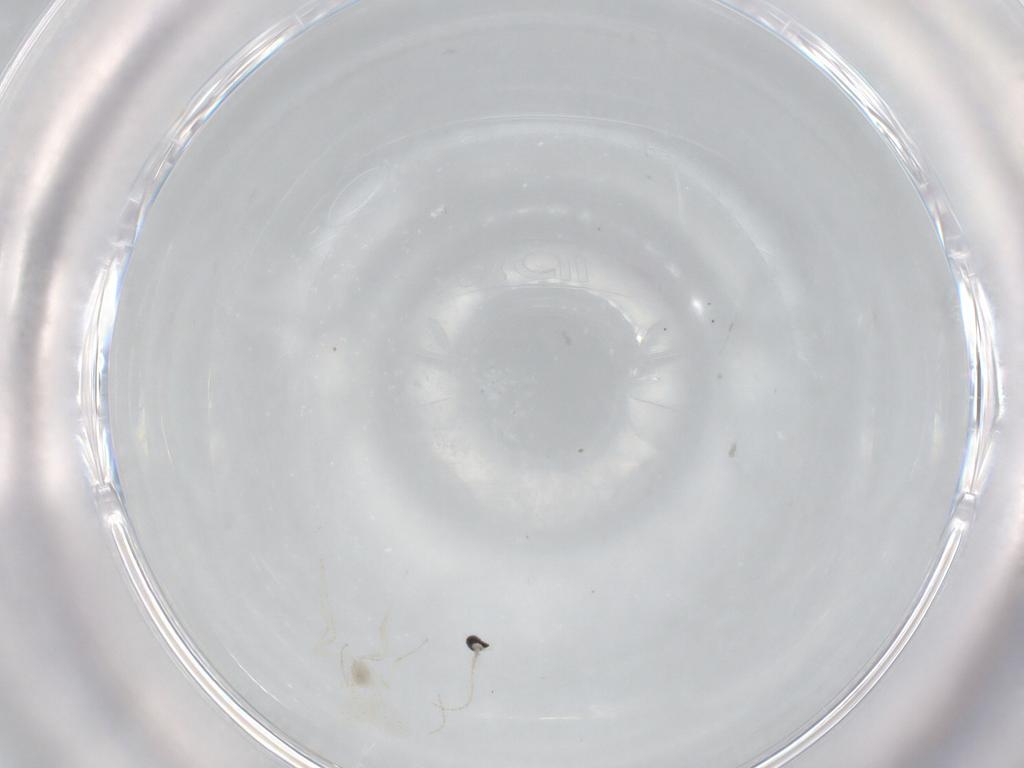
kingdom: Animalia
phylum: Arthropoda
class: Insecta
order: Diptera
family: Cecidomyiidae
